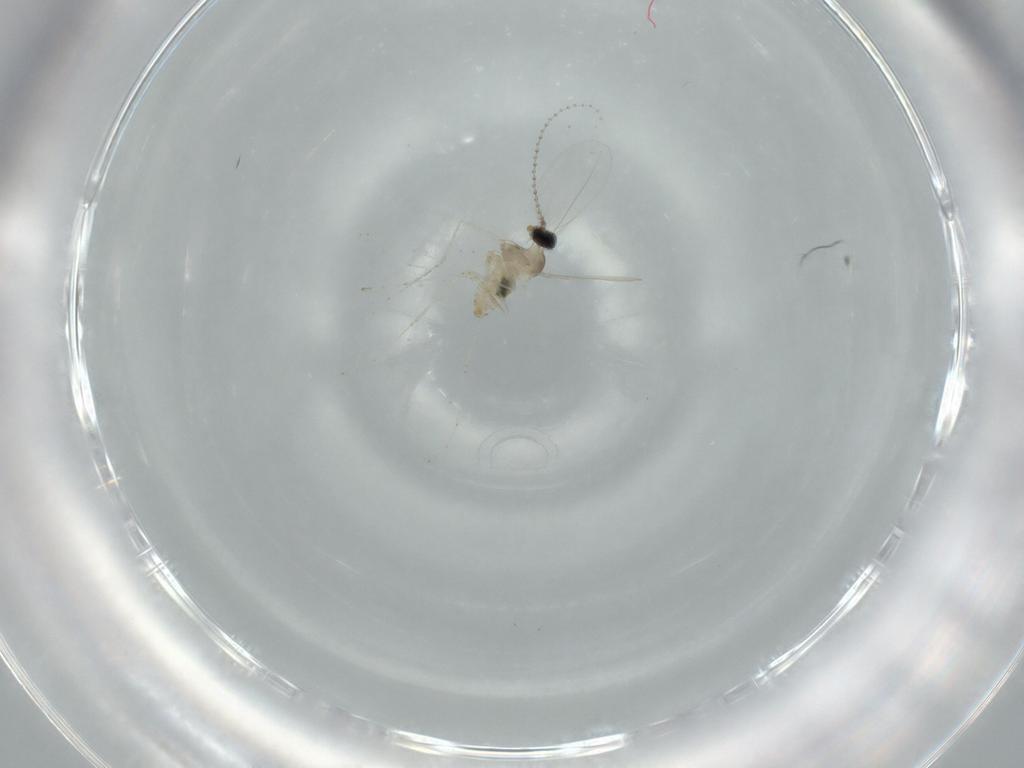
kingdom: Animalia
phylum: Arthropoda
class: Insecta
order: Diptera
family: Cecidomyiidae
